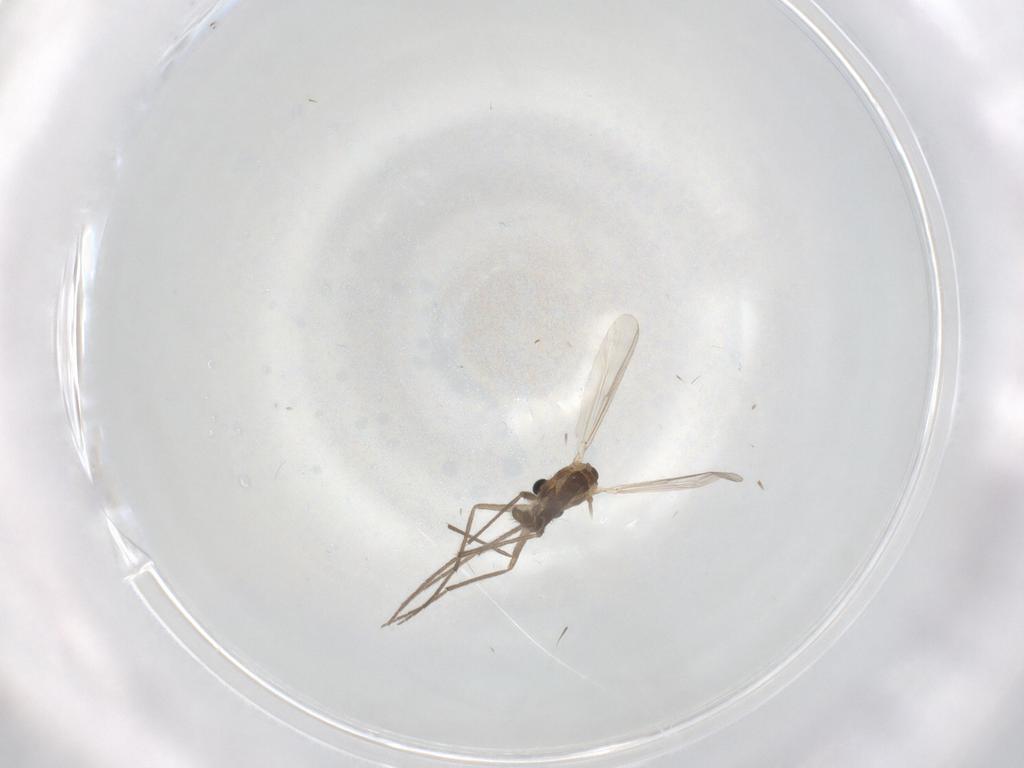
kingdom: Animalia
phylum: Arthropoda
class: Insecta
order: Diptera
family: Chironomidae
